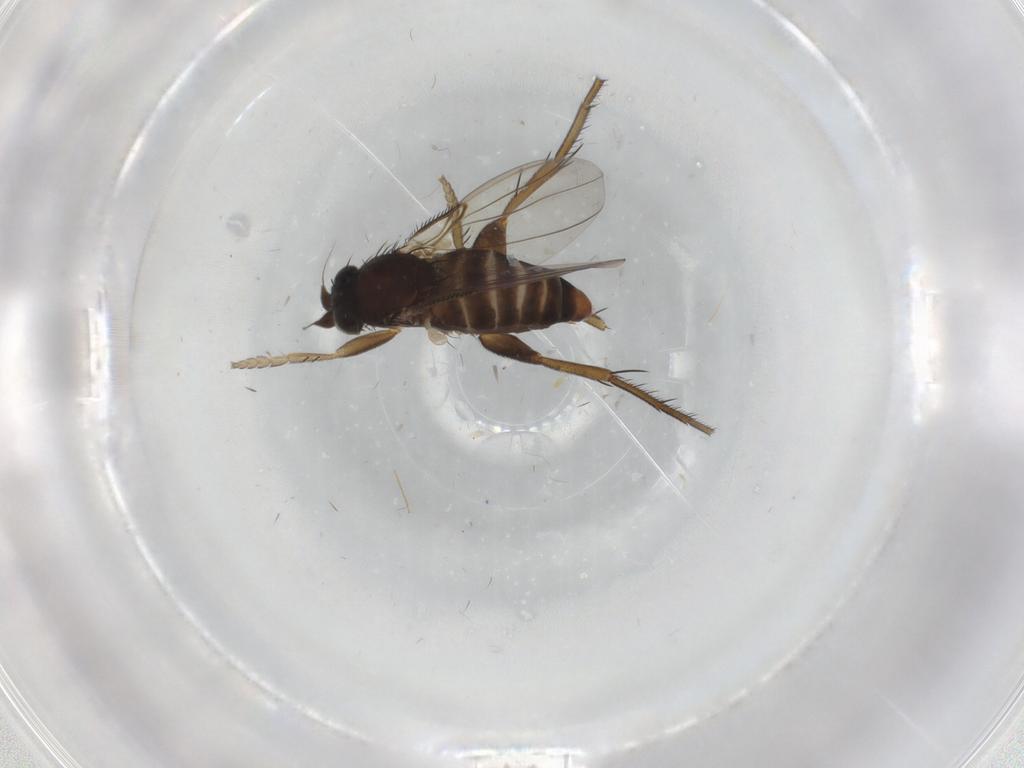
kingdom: Animalia
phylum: Arthropoda
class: Insecta
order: Diptera
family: Phoridae
